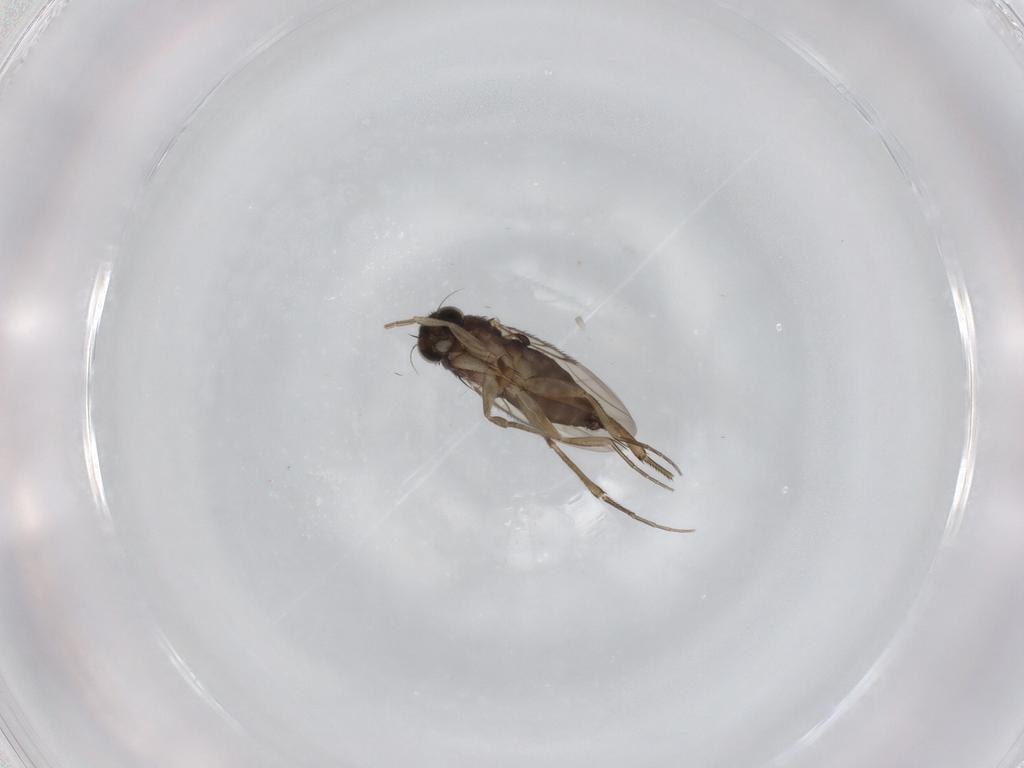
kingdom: Animalia
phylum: Arthropoda
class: Insecta
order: Diptera
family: Phoridae
